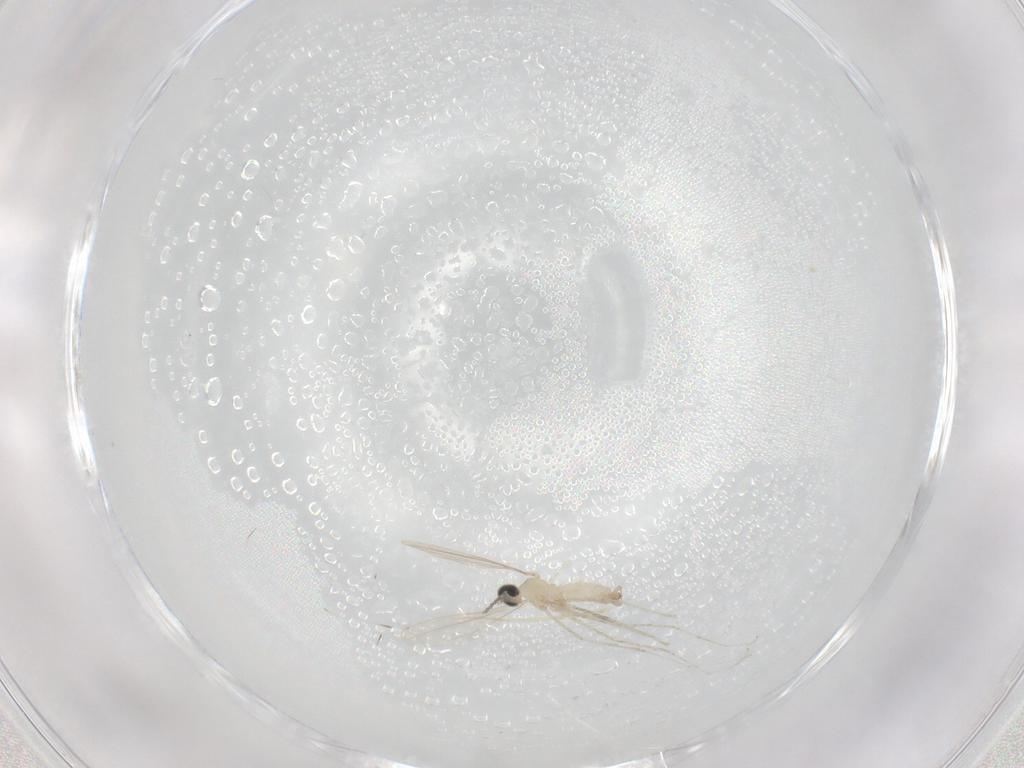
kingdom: Animalia
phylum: Arthropoda
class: Insecta
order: Diptera
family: Cecidomyiidae
